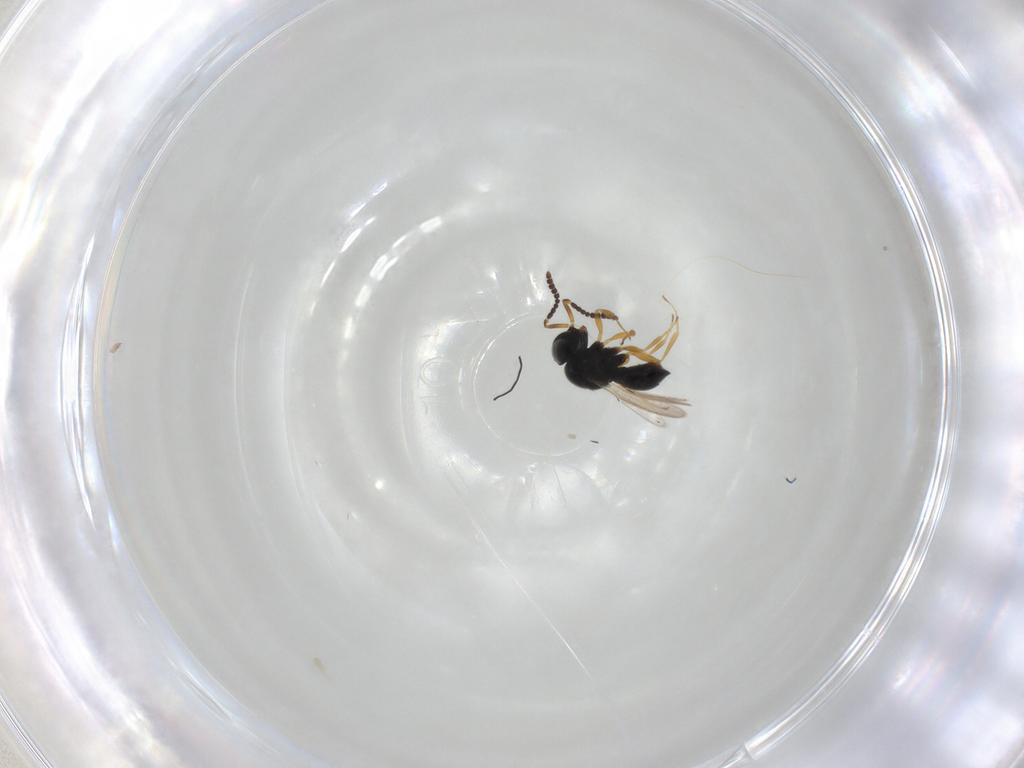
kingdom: Animalia
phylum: Arthropoda
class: Insecta
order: Hymenoptera
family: Scelionidae
